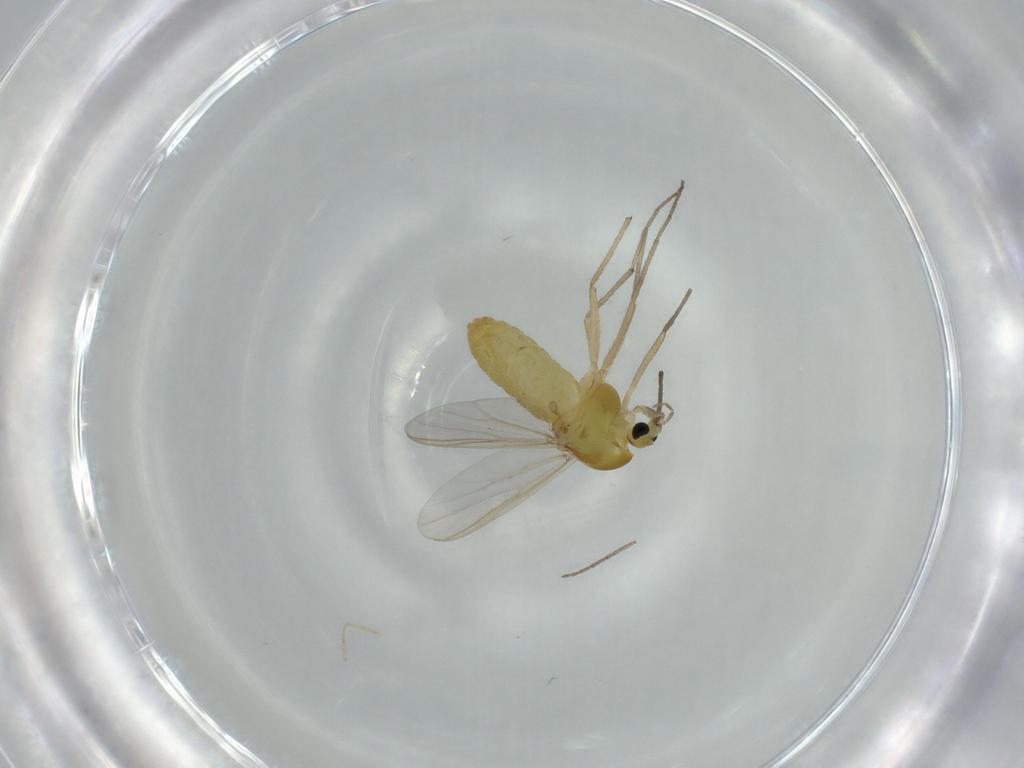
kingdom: Animalia
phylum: Arthropoda
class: Insecta
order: Diptera
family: Chironomidae
